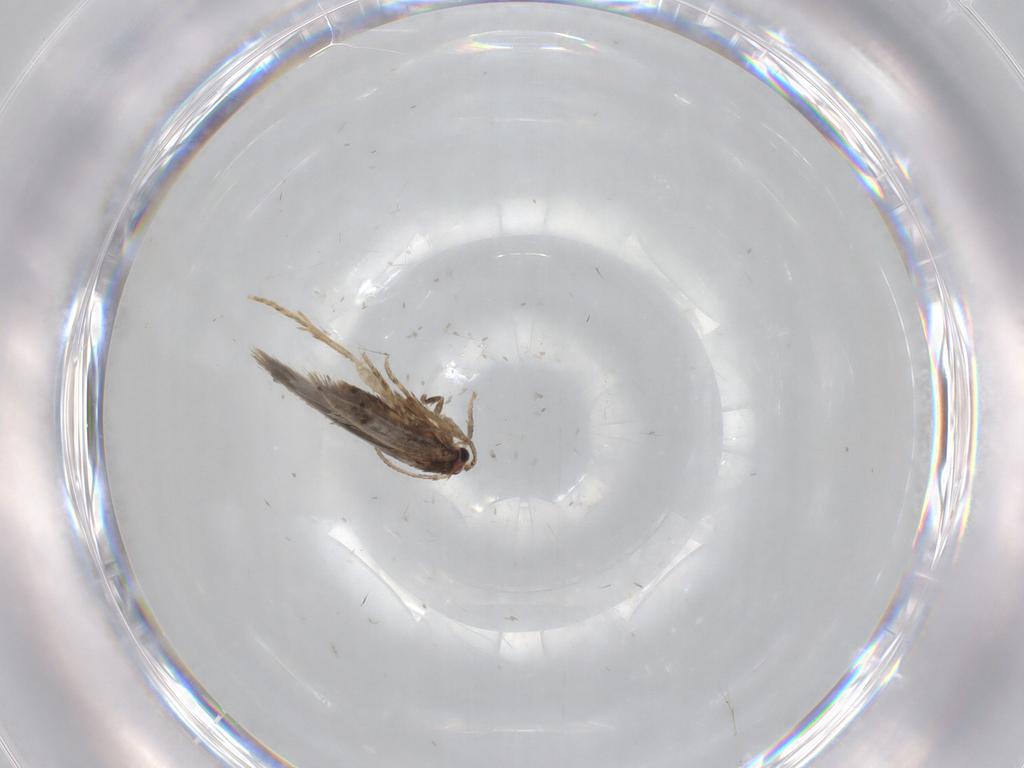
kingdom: Animalia
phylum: Arthropoda
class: Insecta
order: Lepidoptera
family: Nepticulidae
